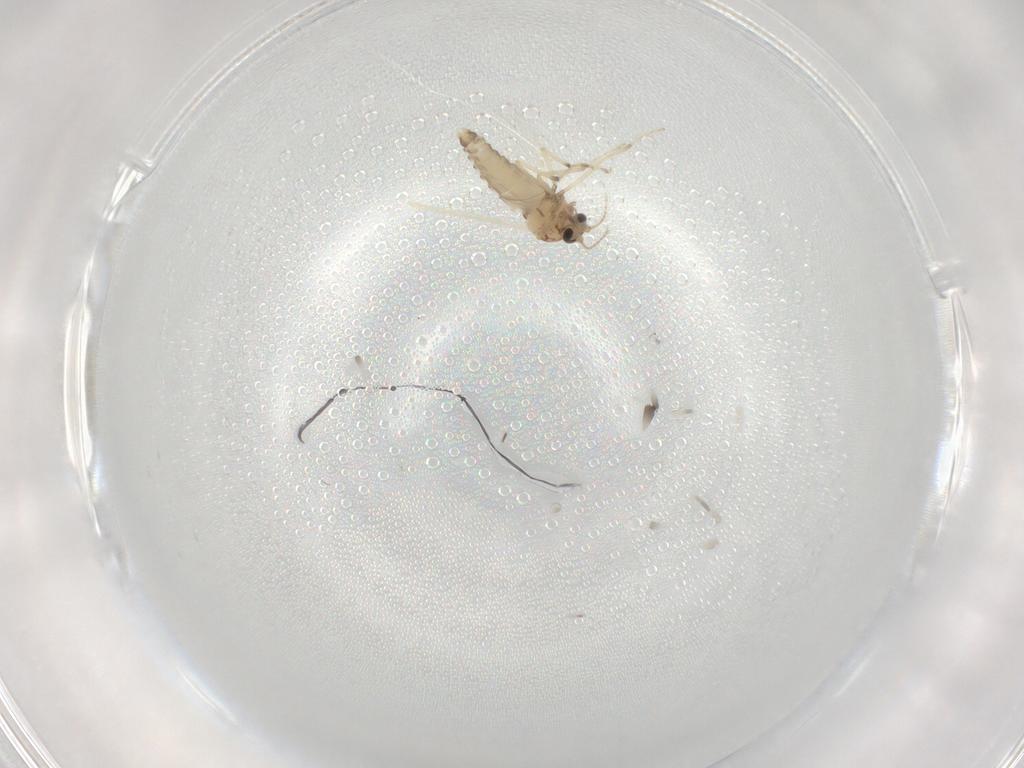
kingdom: Animalia
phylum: Arthropoda
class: Insecta
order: Diptera
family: Ceratopogonidae
